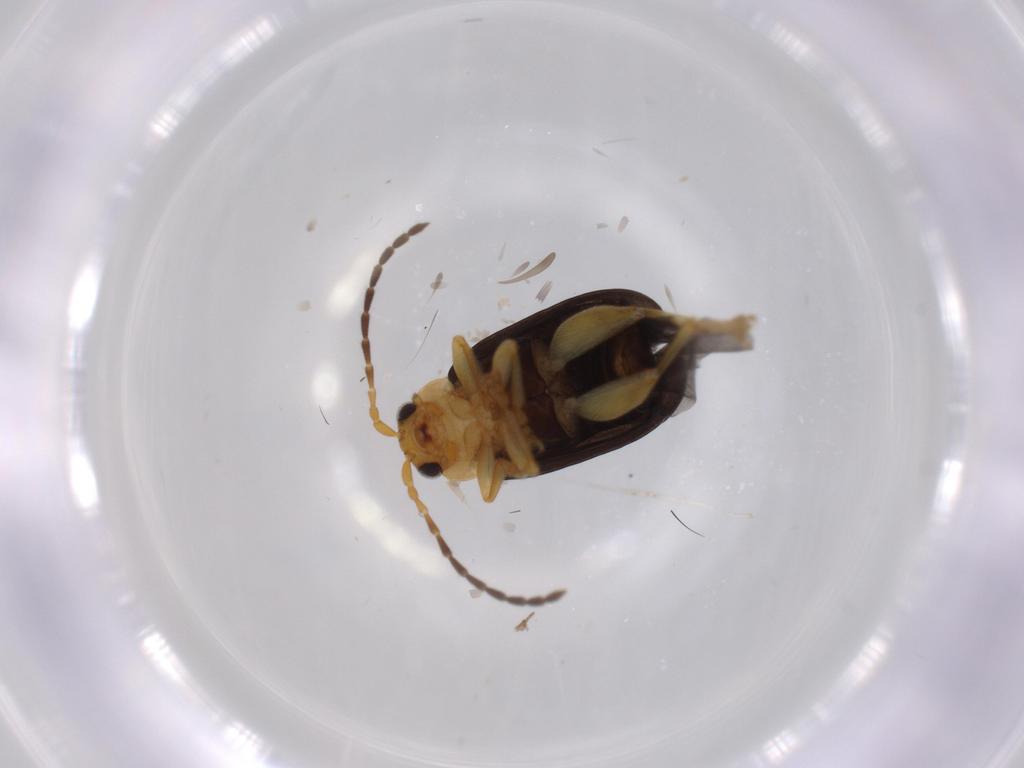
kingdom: Animalia
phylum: Arthropoda
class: Insecta
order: Coleoptera
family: Chrysomelidae
